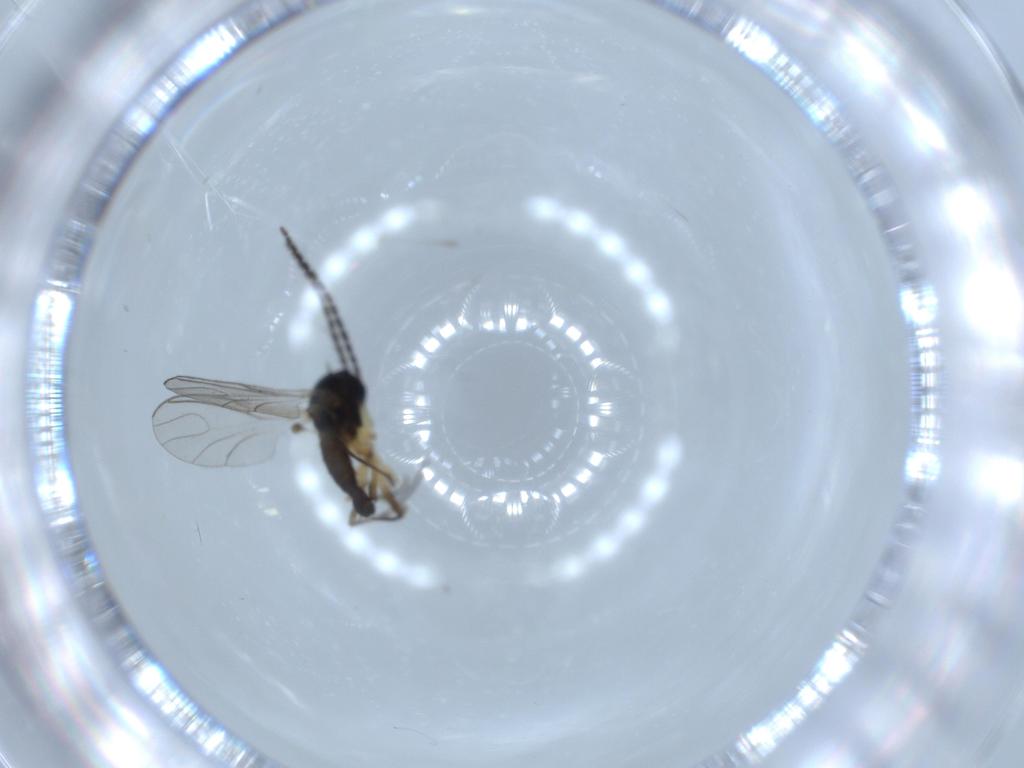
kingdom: Animalia
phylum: Arthropoda
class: Insecta
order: Diptera
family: Sciaridae
